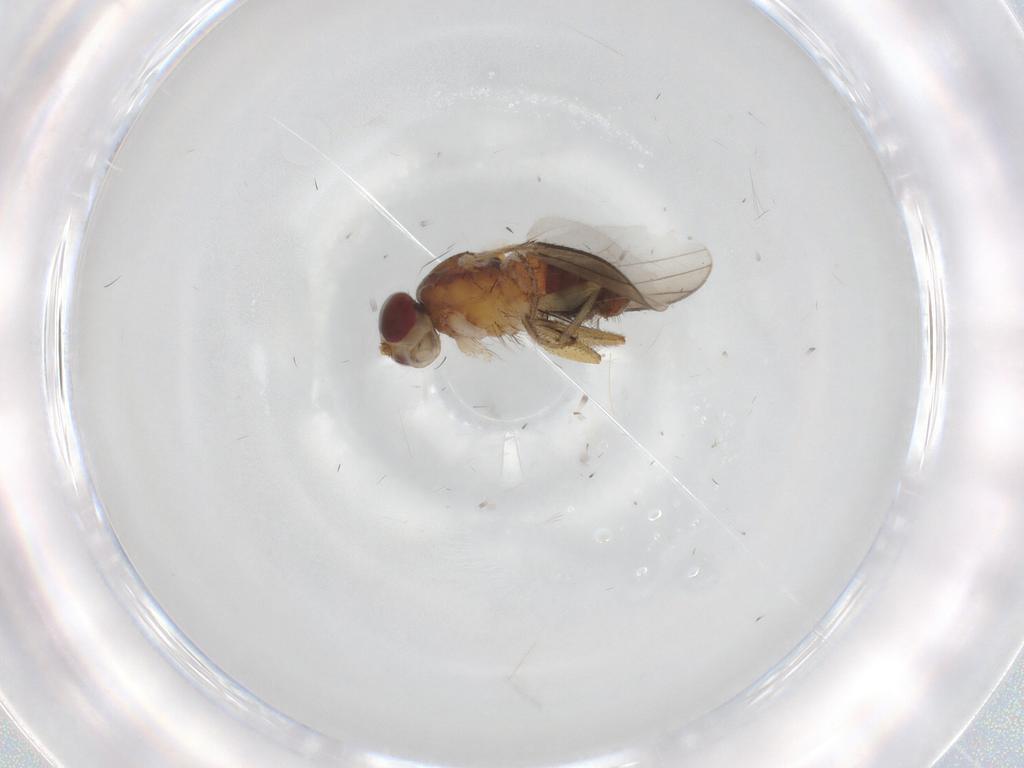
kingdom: Animalia
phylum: Arthropoda
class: Insecta
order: Diptera
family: Heleomyzidae
